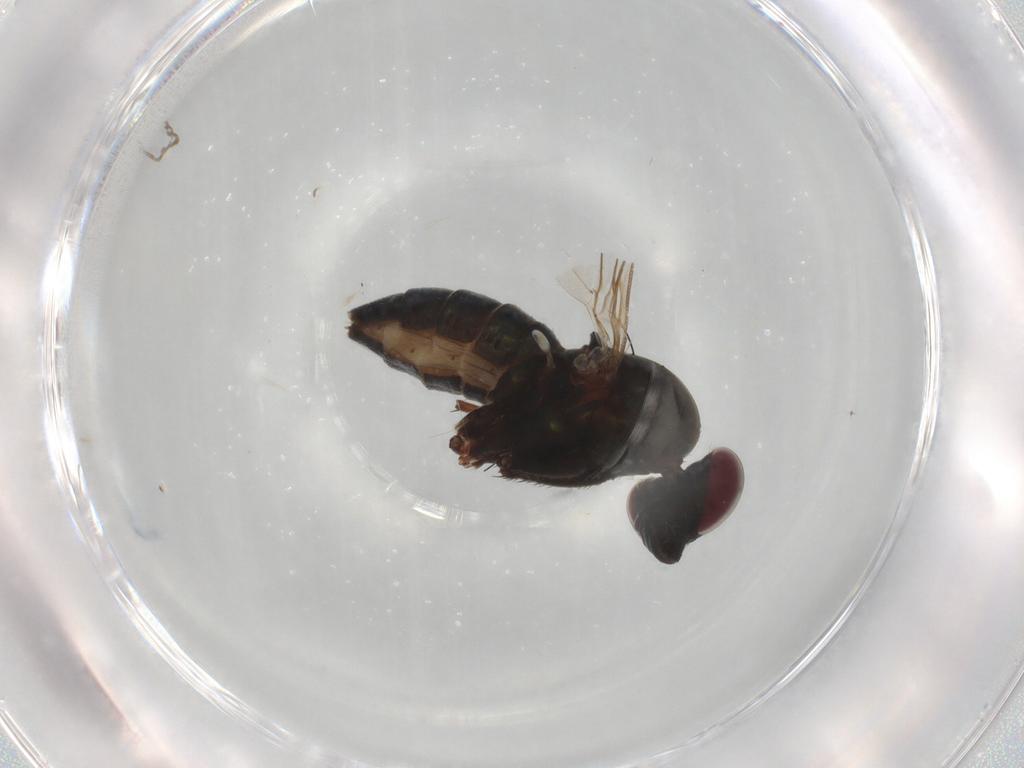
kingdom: Animalia
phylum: Arthropoda
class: Insecta
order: Diptera
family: Dolichopodidae
